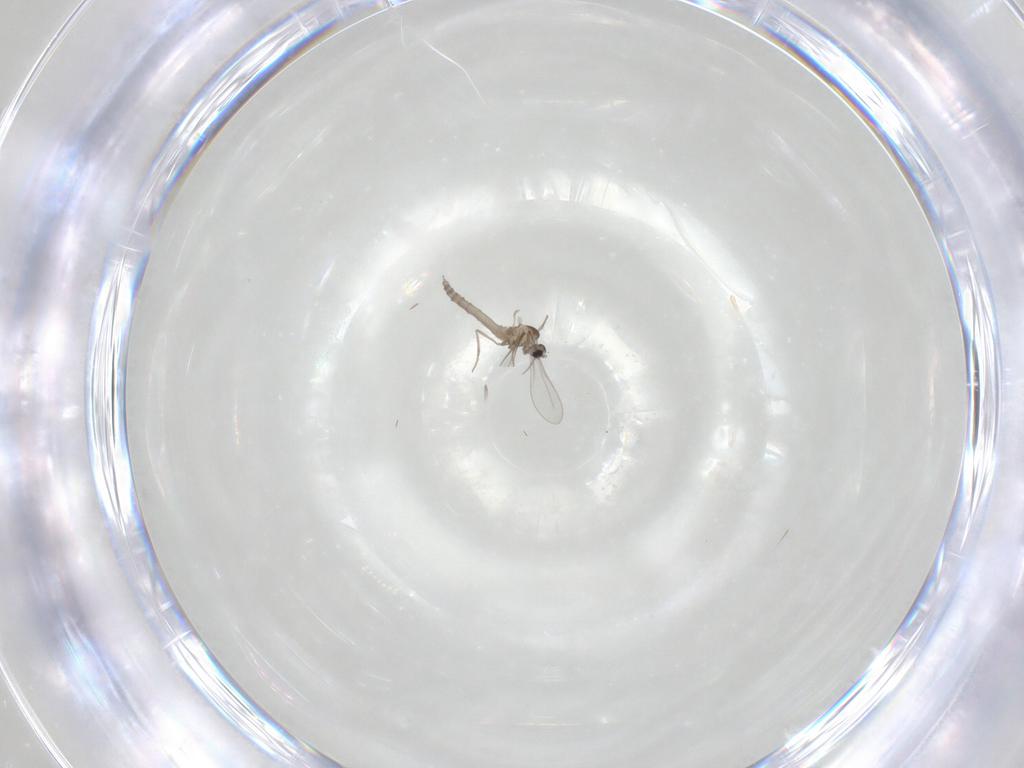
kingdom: Animalia
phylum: Arthropoda
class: Insecta
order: Diptera
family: Cecidomyiidae
